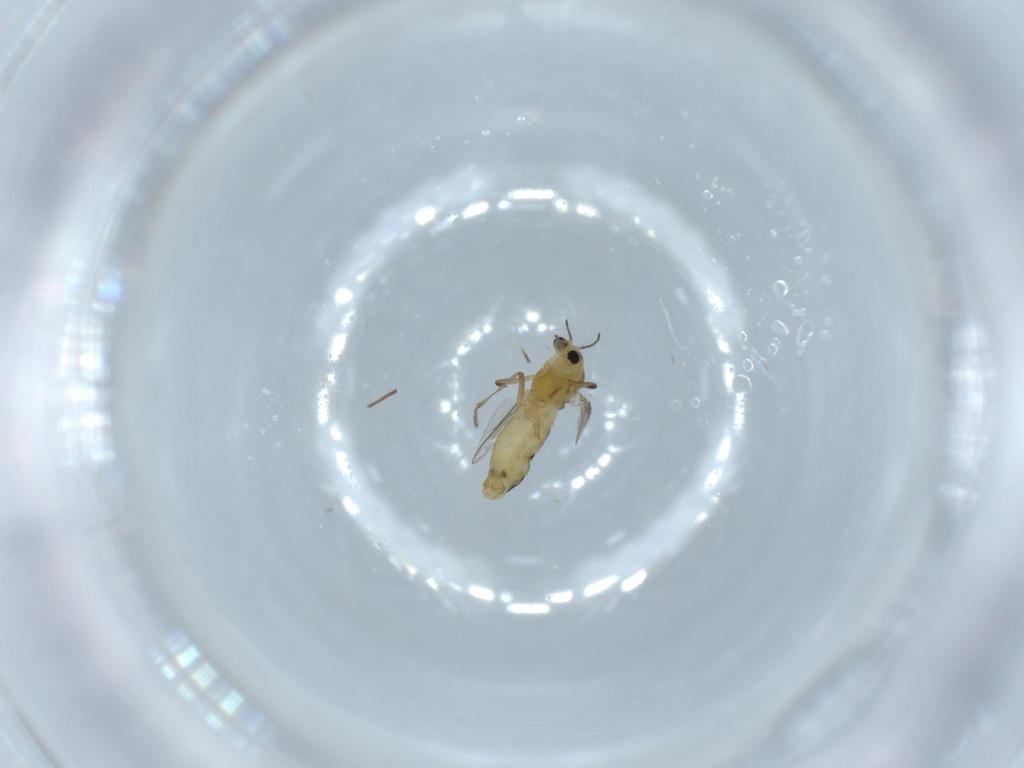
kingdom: Animalia
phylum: Arthropoda
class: Insecta
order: Diptera
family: Chironomidae
